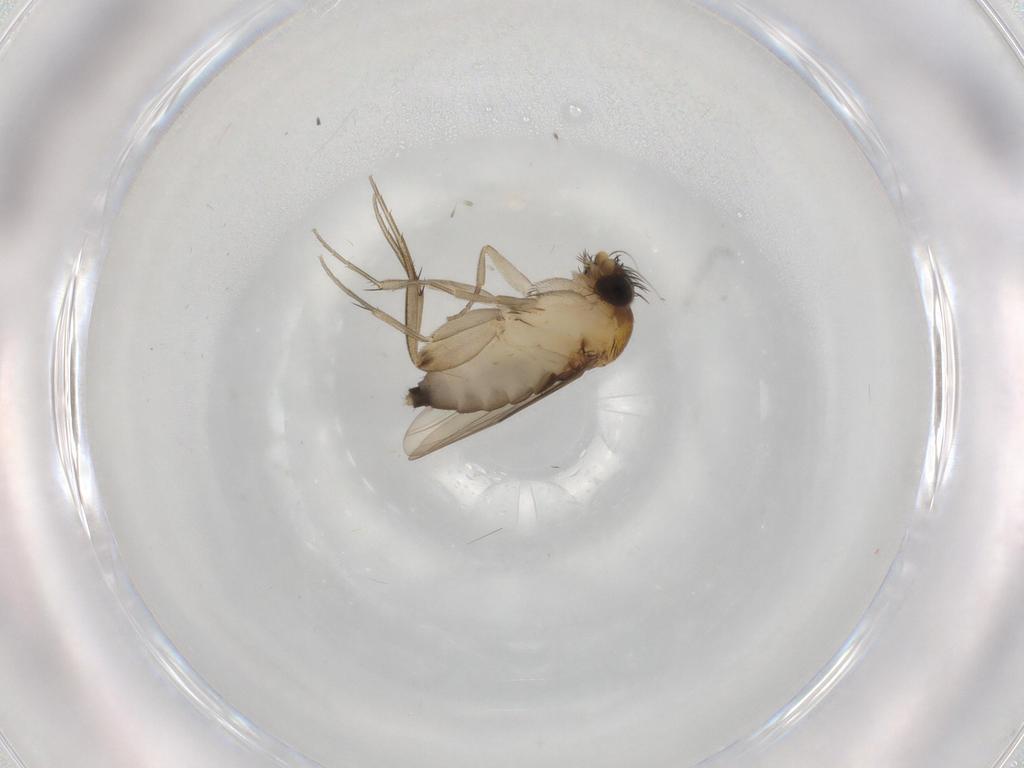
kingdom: Animalia
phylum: Arthropoda
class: Insecta
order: Diptera
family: Phoridae
